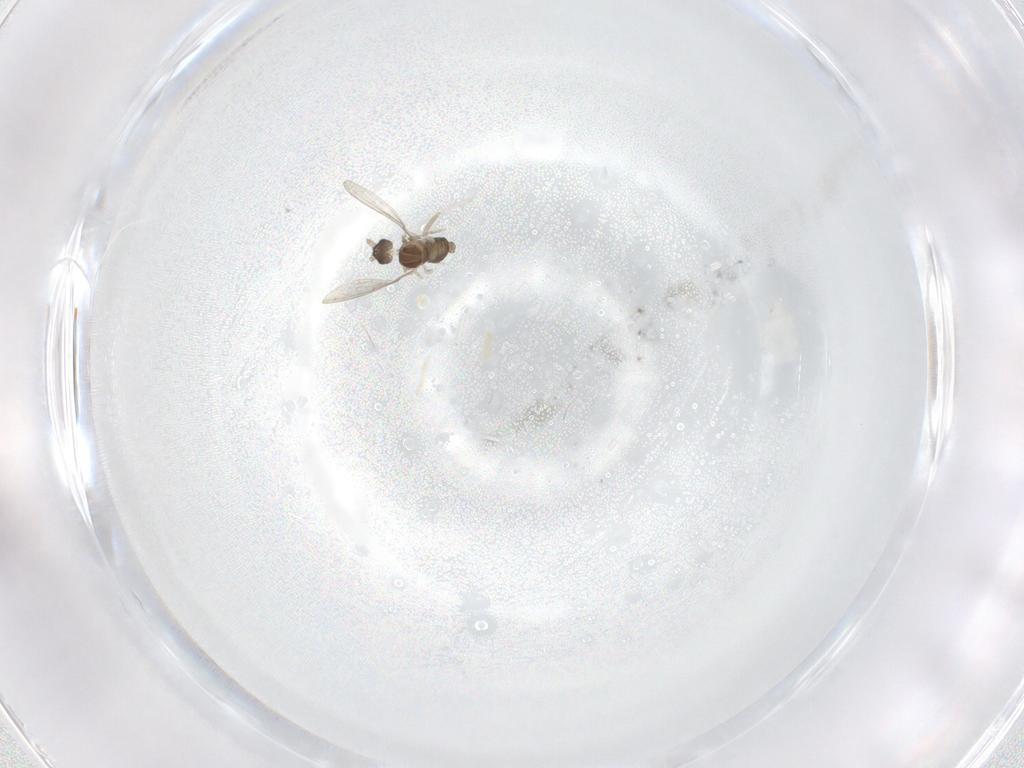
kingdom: Animalia
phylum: Arthropoda
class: Insecta
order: Diptera
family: Cecidomyiidae
